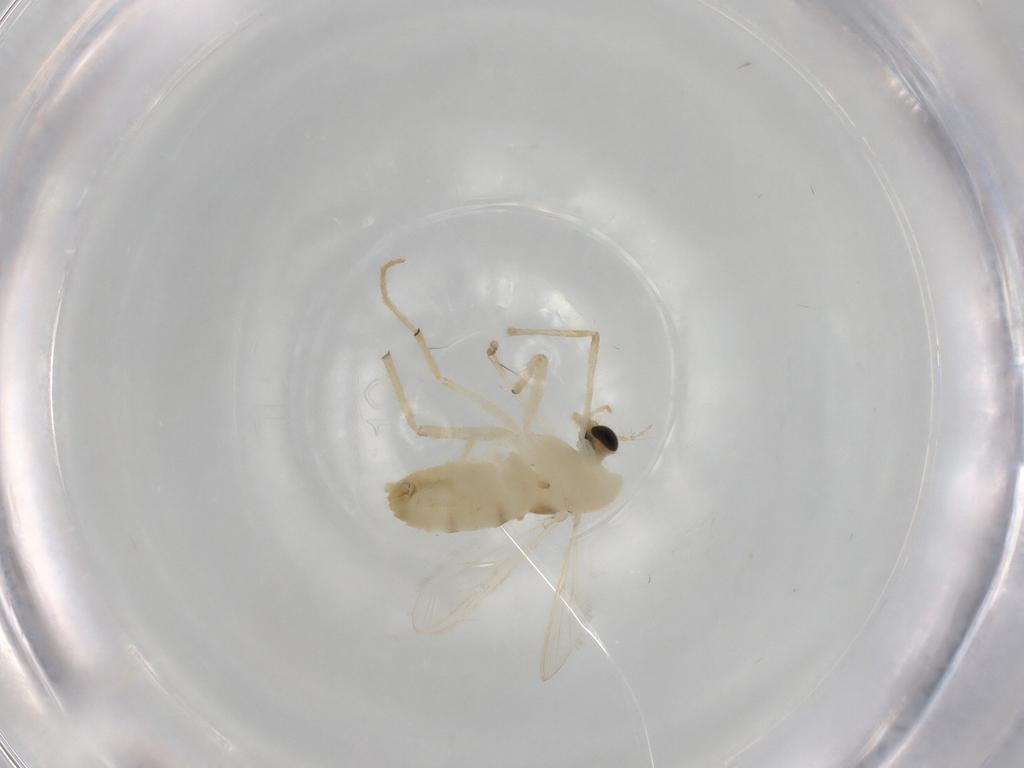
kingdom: Animalia
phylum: Arthropoda
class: Insecta
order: Diptera
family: Chironomidae
